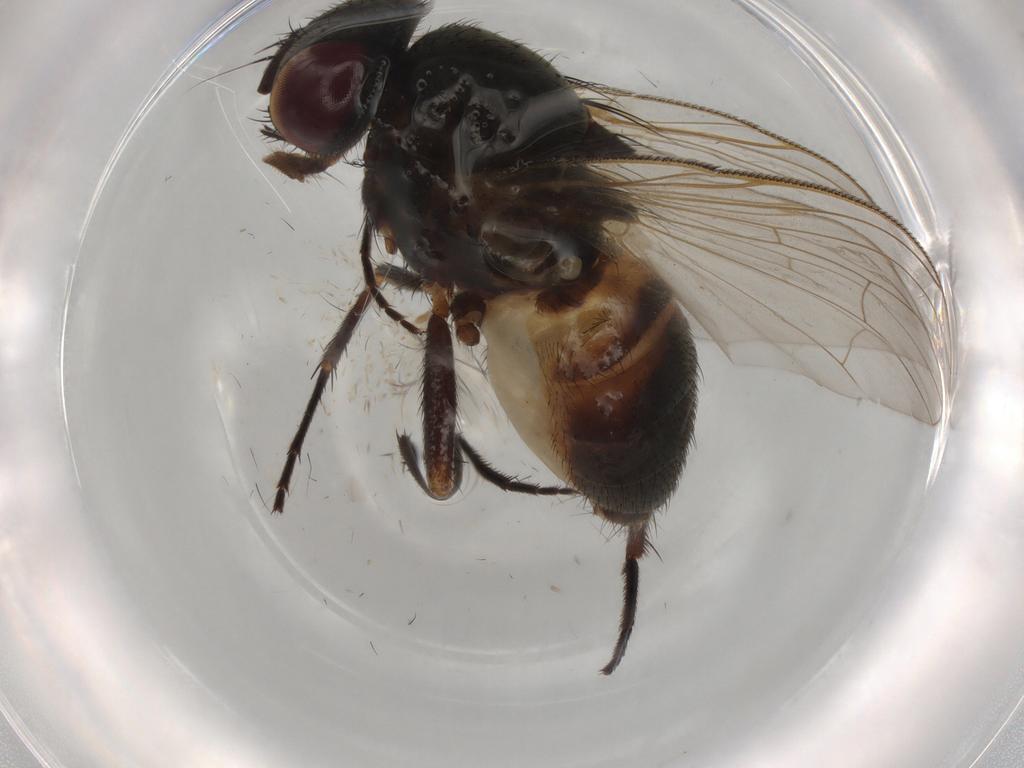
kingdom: Animalia
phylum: Arthropoda
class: Insecta
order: Diptera
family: Fannia
